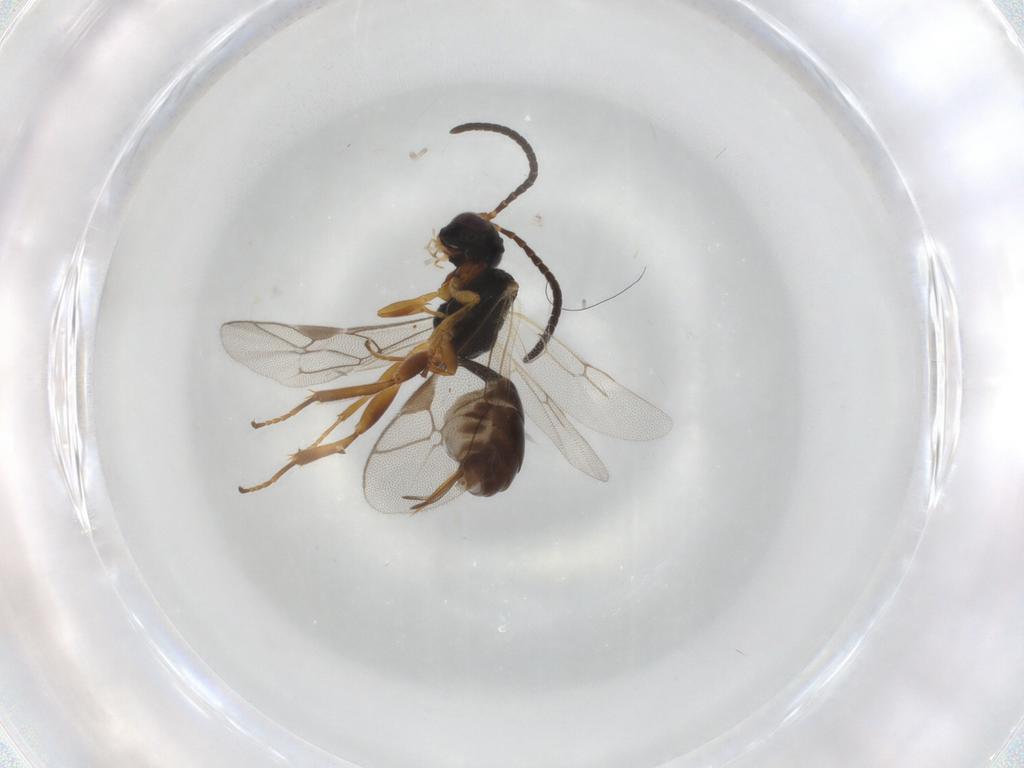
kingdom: Animalia
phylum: Arthropoda
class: Insecta
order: Hymenoptera
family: Ichneumonidae
